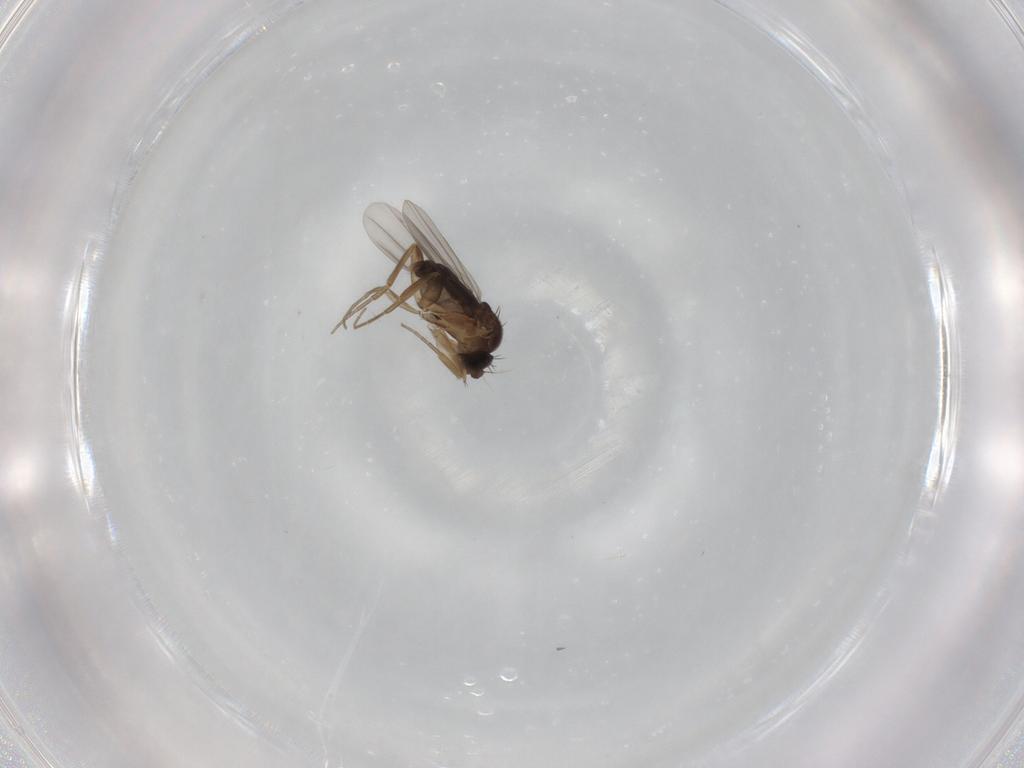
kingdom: Animalia
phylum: Arthropoda
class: Insecta
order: Diptera
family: Phoridae
